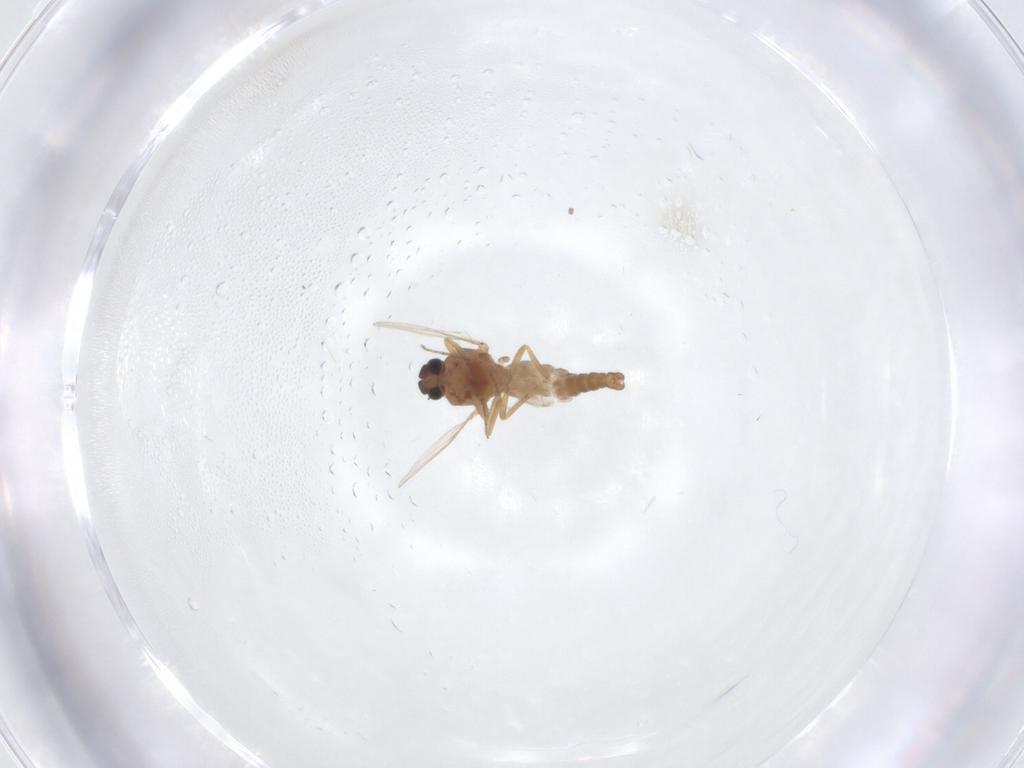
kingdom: Animalia
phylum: Arthropoda
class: Insecta
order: Diptera
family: Ceratopogonidae
